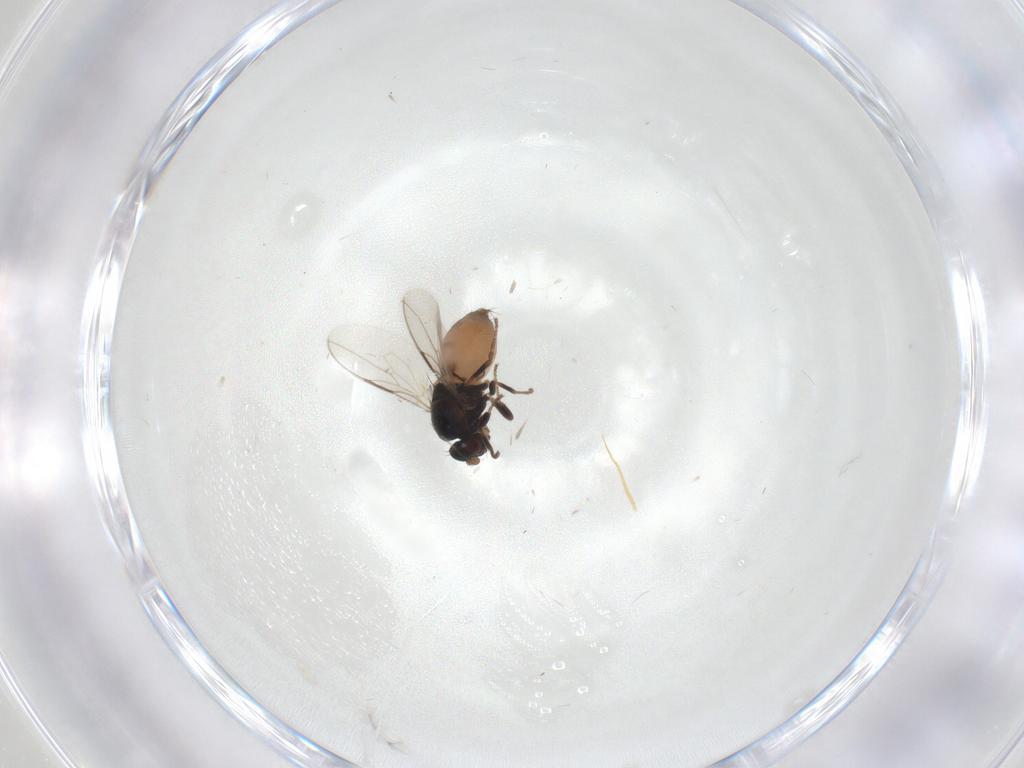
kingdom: Animalia
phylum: Arthropoda
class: Insecta
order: Diptera
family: Sphaeroceridae
